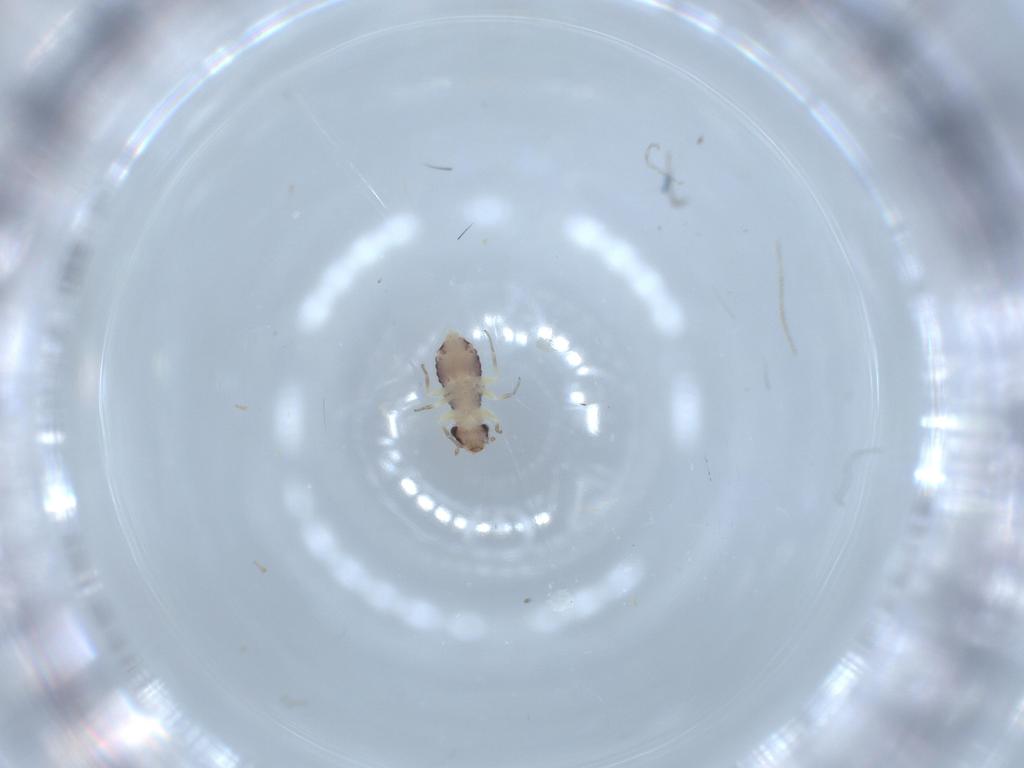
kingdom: Animalia
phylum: Arthropoda
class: Insecta
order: Psocodea
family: Psoquillidae
